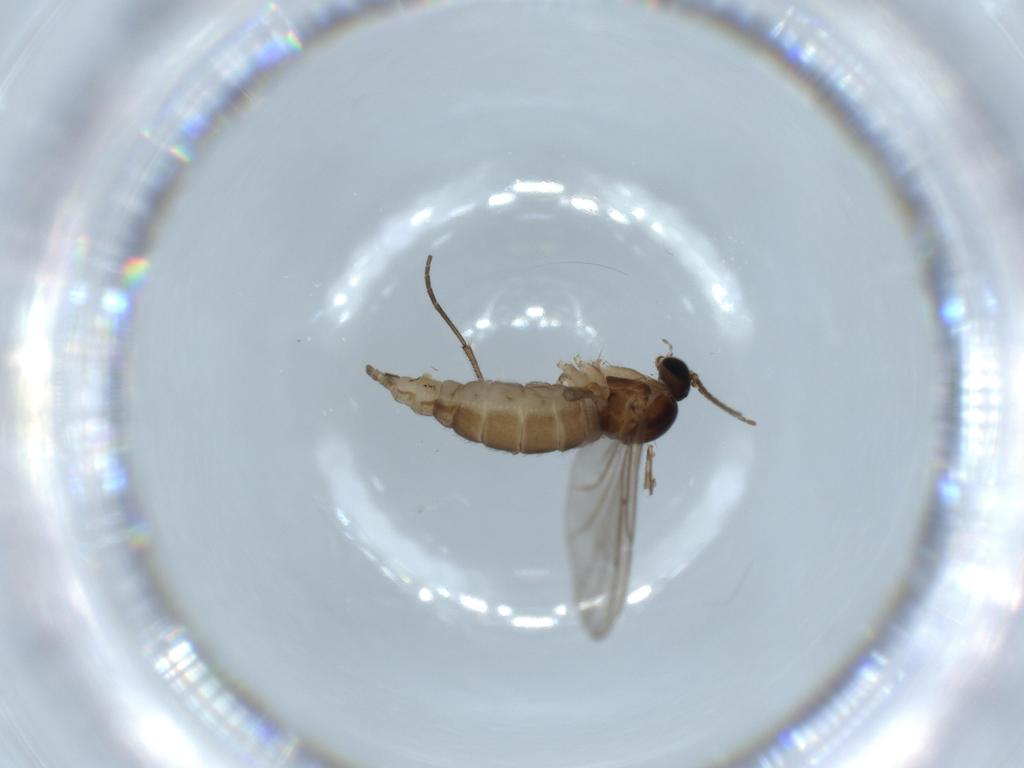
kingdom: Animalia
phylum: Arthropoda
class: Insecta
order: Diptera
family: Sciaridae
